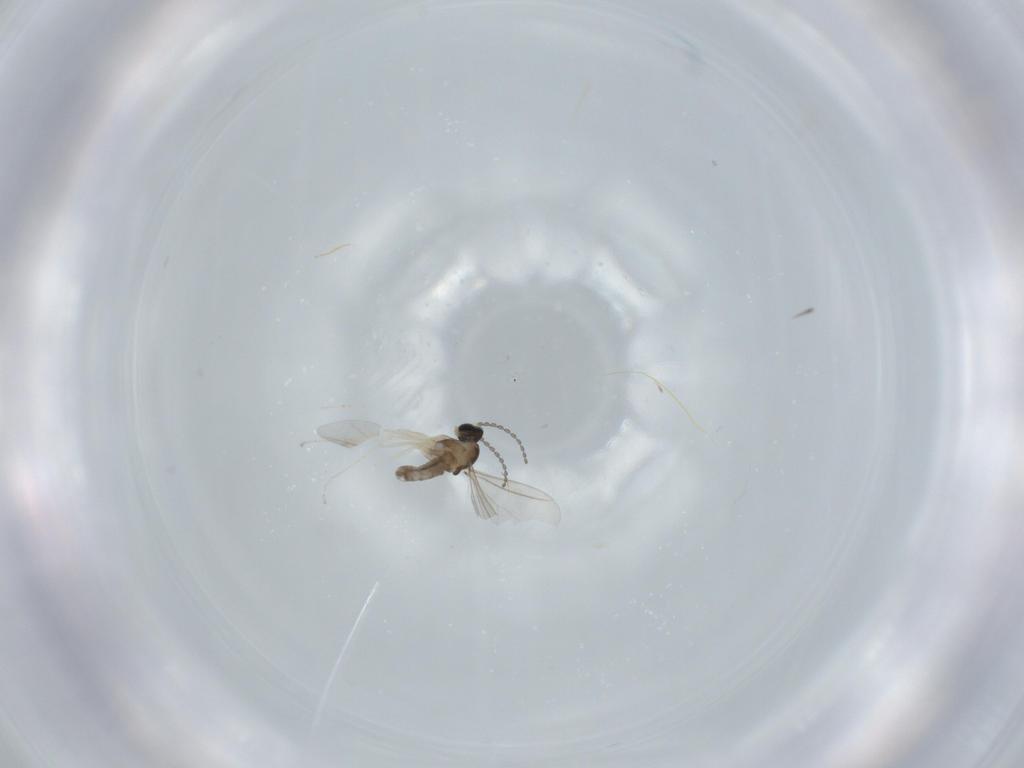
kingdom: Animalia
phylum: Arthropoda
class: Insecta
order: Diptera
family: Cecidomyiidae
